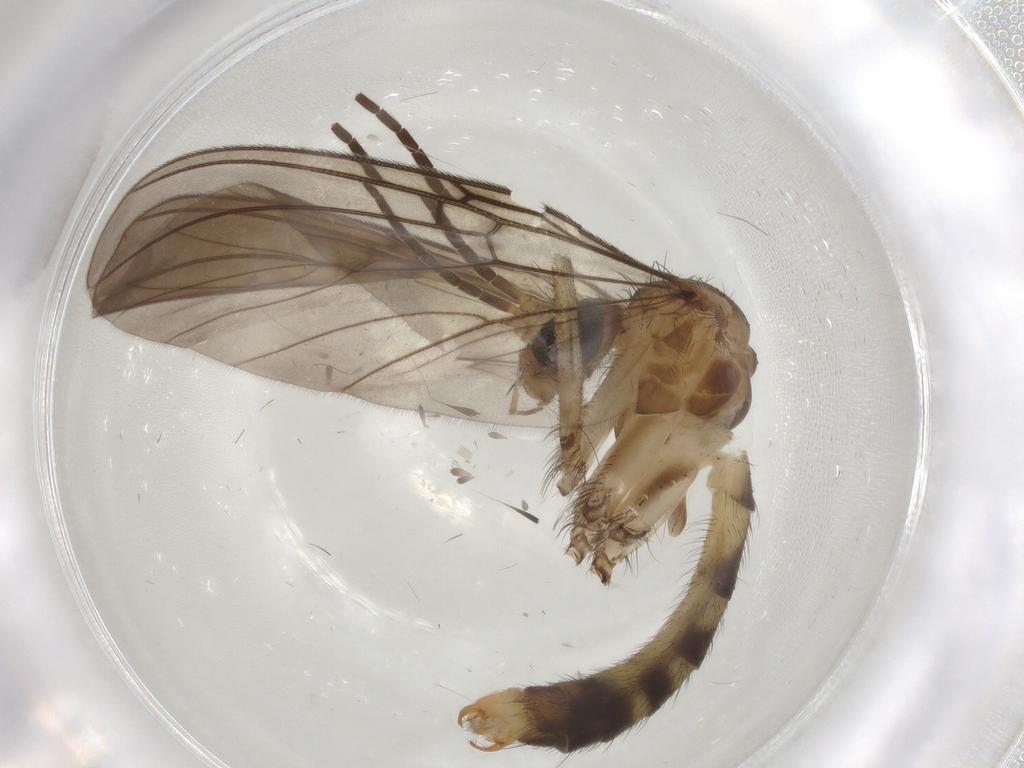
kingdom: Animalia
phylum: Arthropoda
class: Insecta
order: Diptera
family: Mycetophilidae
